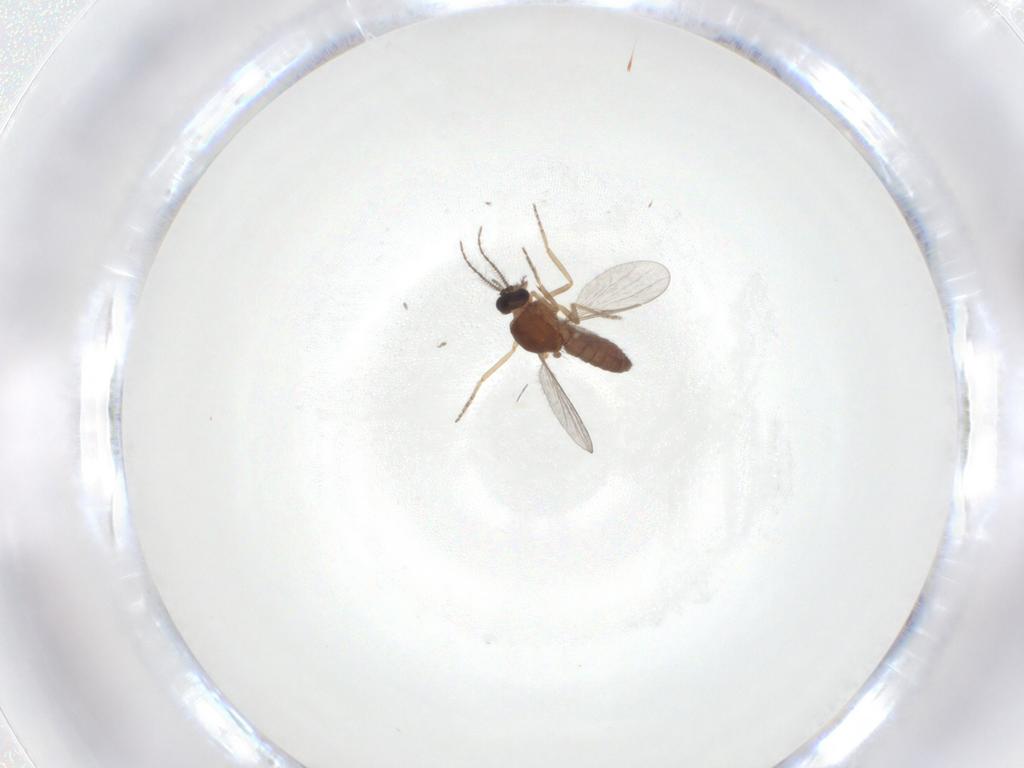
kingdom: Animalia
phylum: Arthropoda
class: Insecta
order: Diptera
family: Ceratopogonidae
